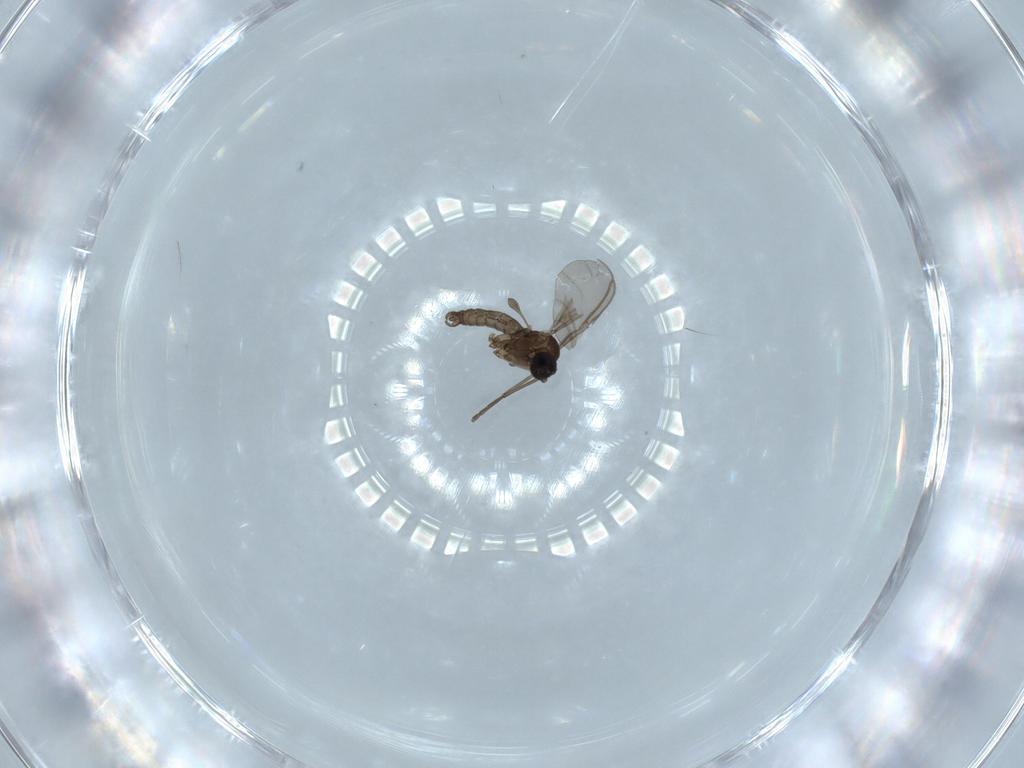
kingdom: Animalia
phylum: Arthropoda
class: Insecta
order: Diptera
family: Sciaridae
